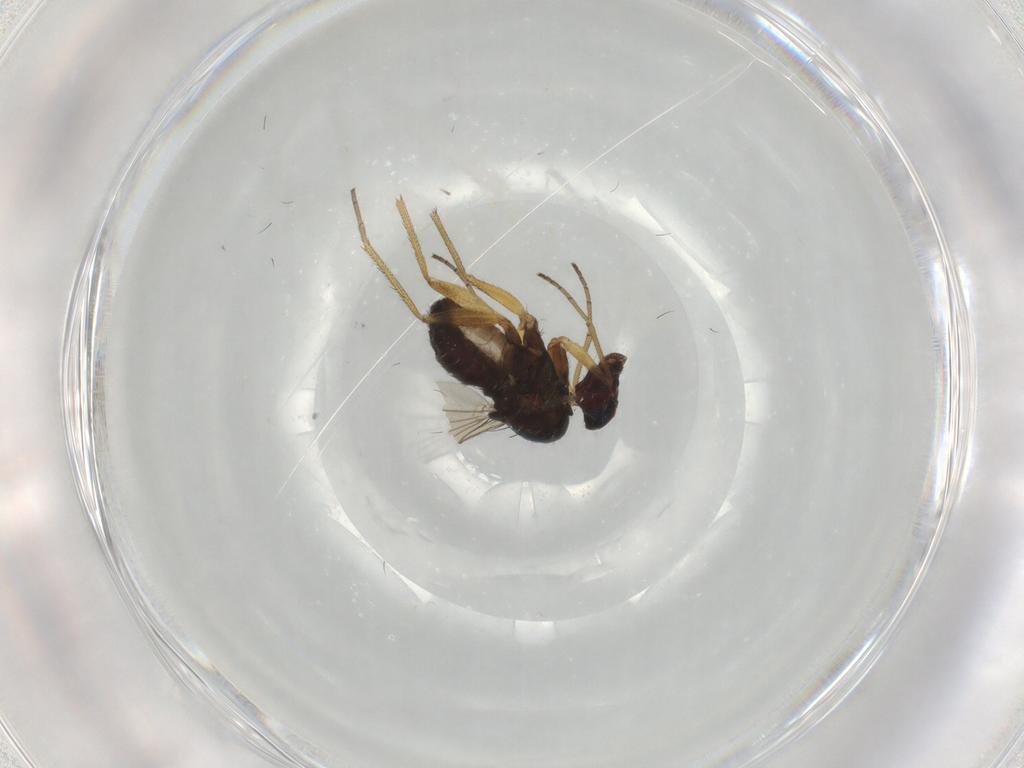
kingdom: Animalia
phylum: Arthropoda
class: Insecta
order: Diptera
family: Dolichopodidae
